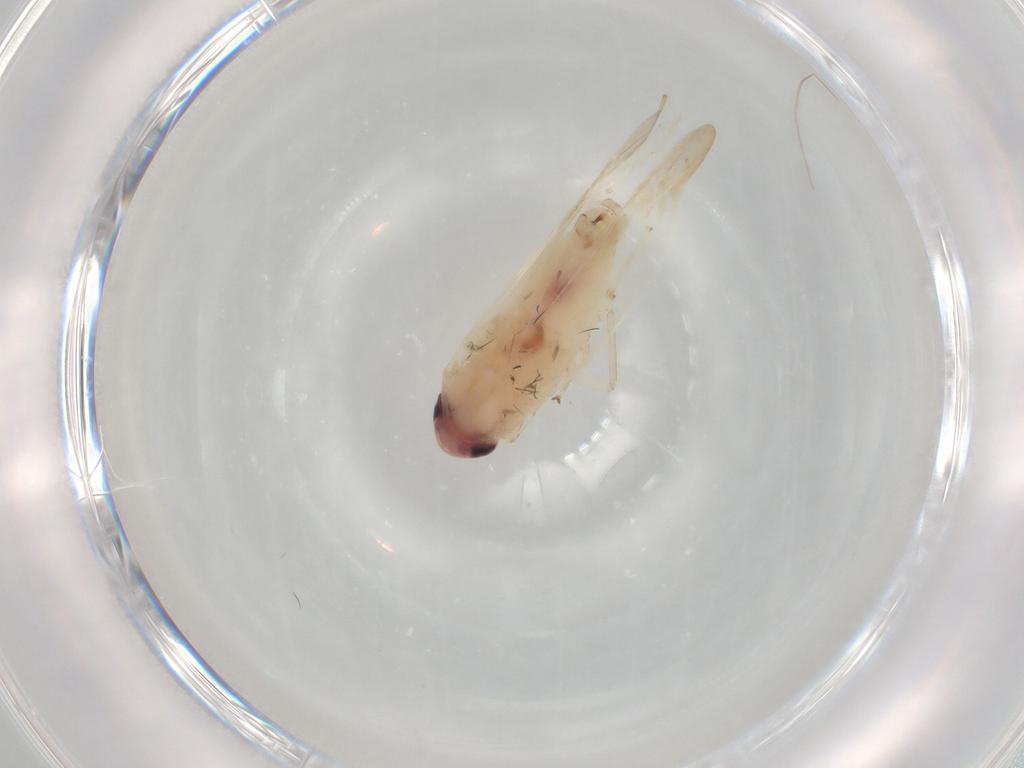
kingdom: Animalia
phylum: Arthropoda
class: Insecta
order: Hemiptera
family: Cicadellidae
